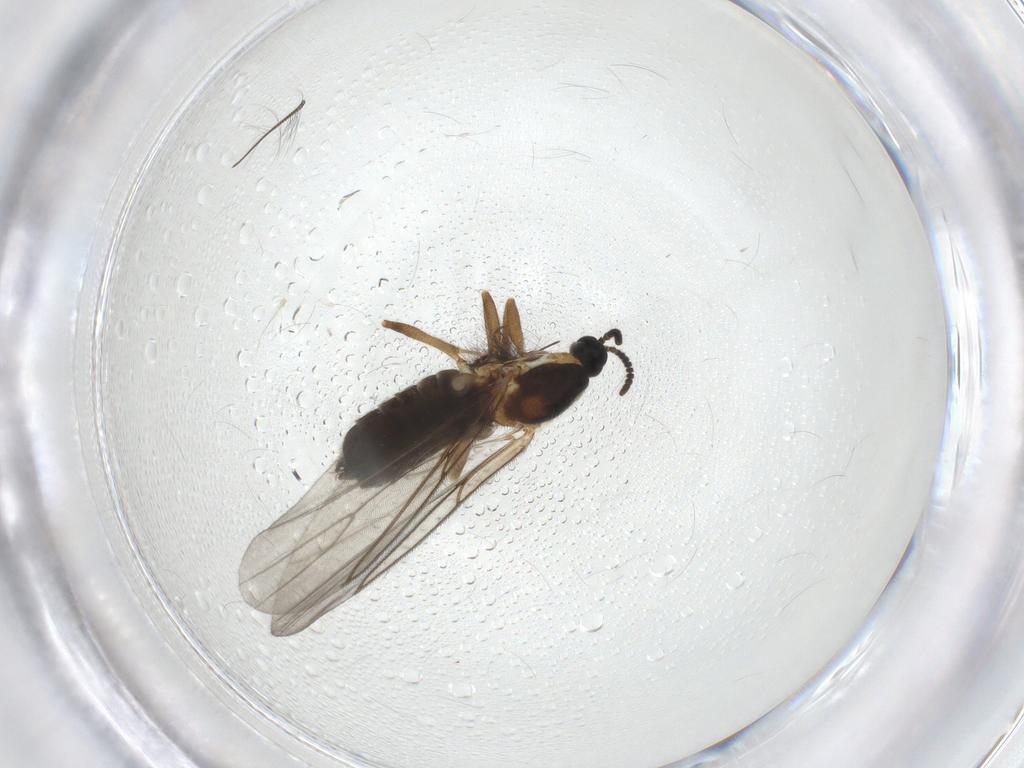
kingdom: Animalia
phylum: Arthropoda
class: Insecta
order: Diptera
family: Scatopsidae
